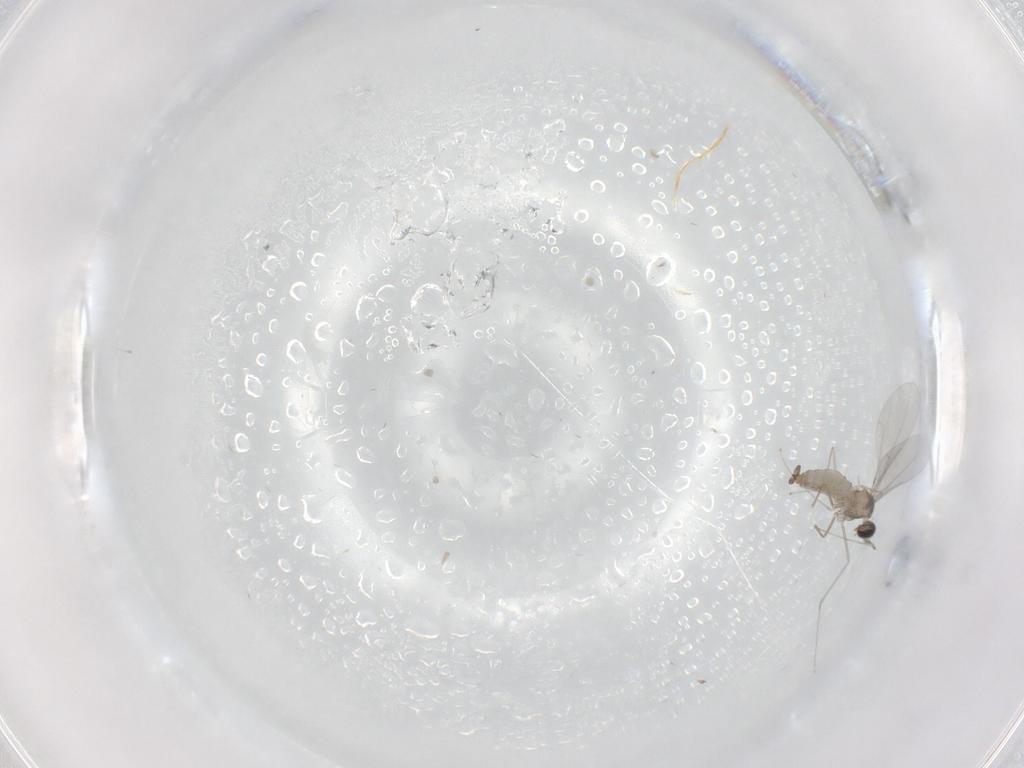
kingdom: Animalia
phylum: Arthropoda
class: Insecta
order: Diptera
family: Cecidomyiidae
